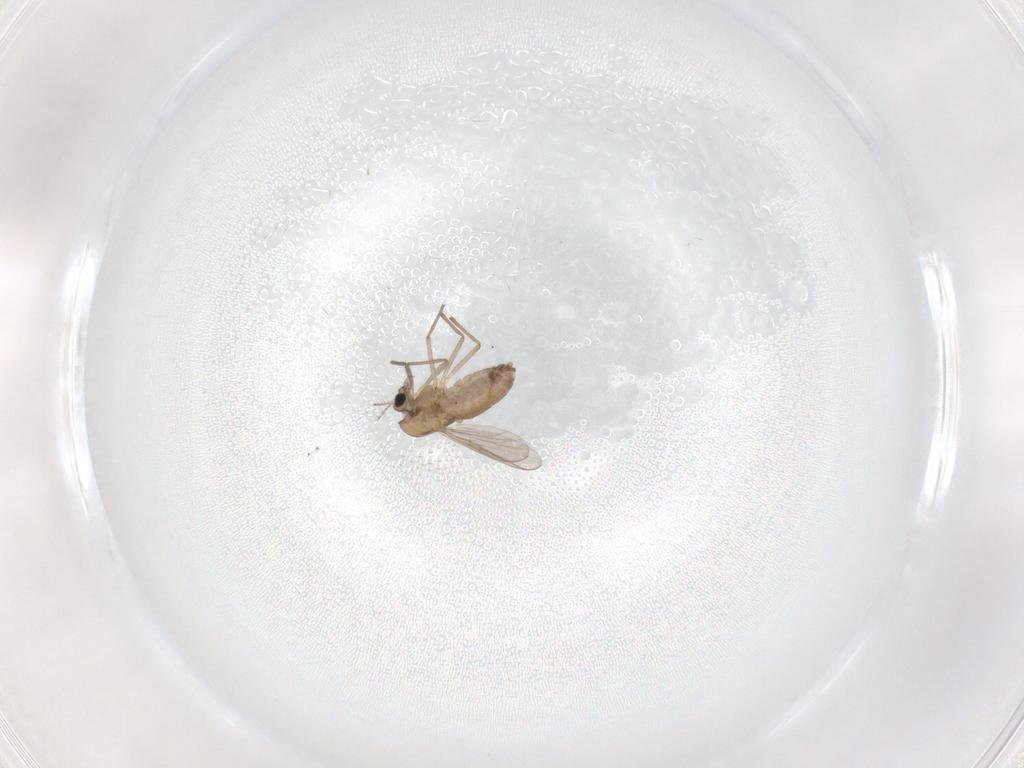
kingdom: Animalia
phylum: Arthropoda
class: Insecta
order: Diptera
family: Chironomidae
